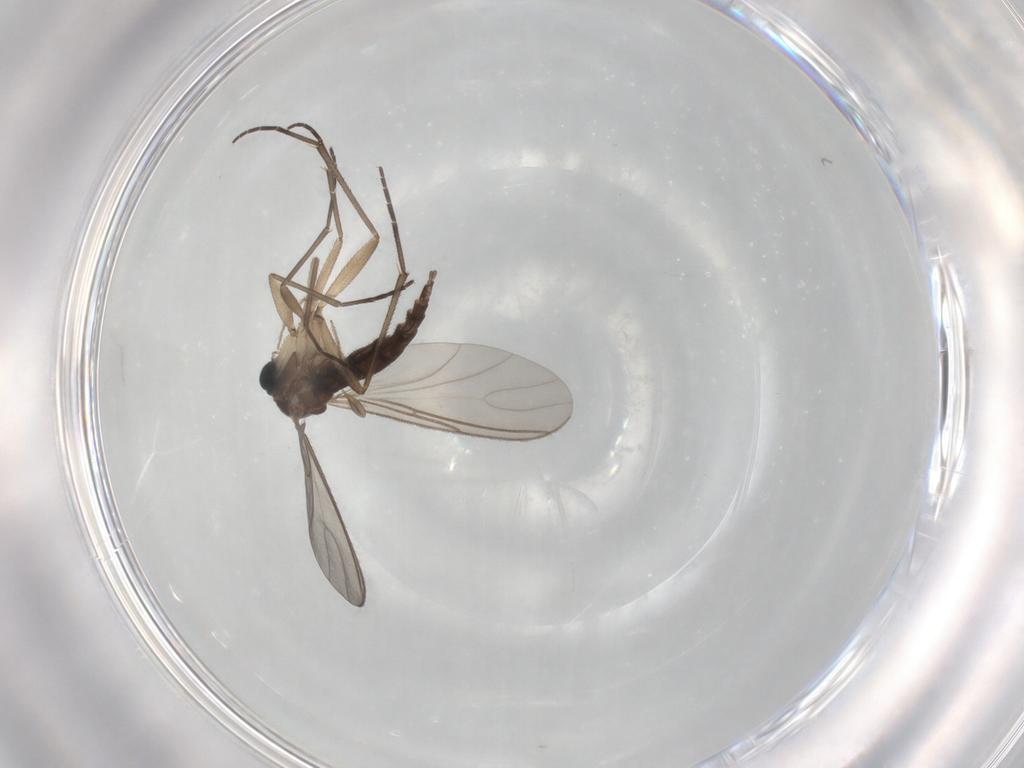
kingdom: Animalia
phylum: Arthropoda
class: Insecta
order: Diptera
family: Sciaridae
